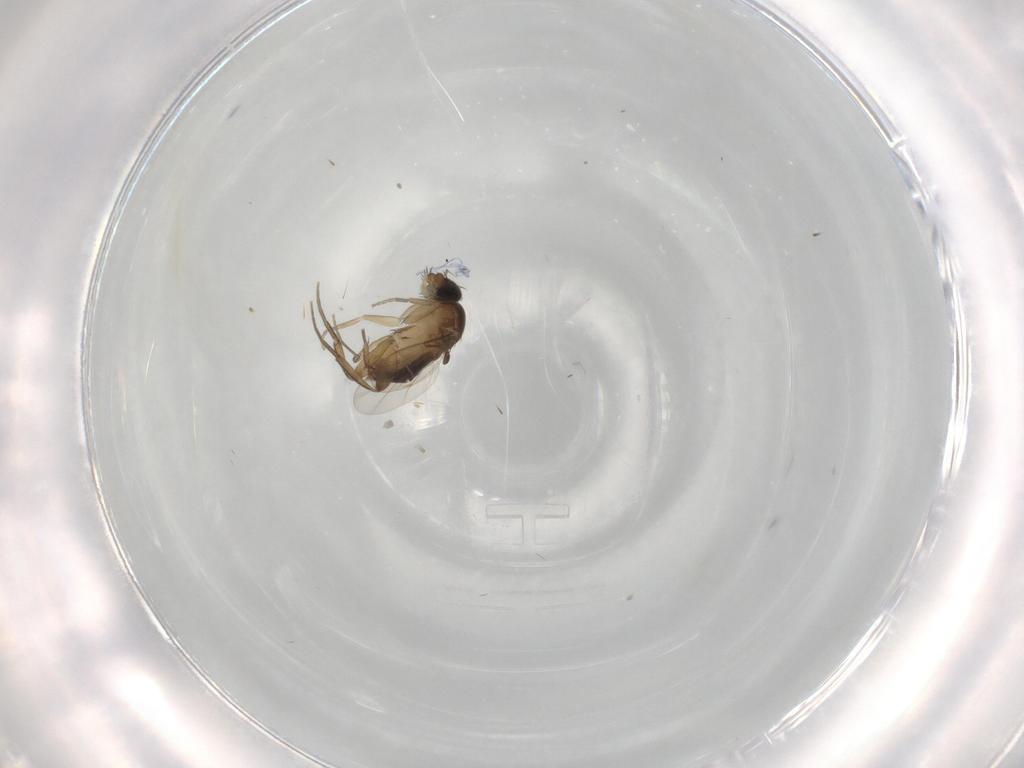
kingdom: Animalia
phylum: Arthropoda
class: Insecta
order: Diptera
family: Phoridae
